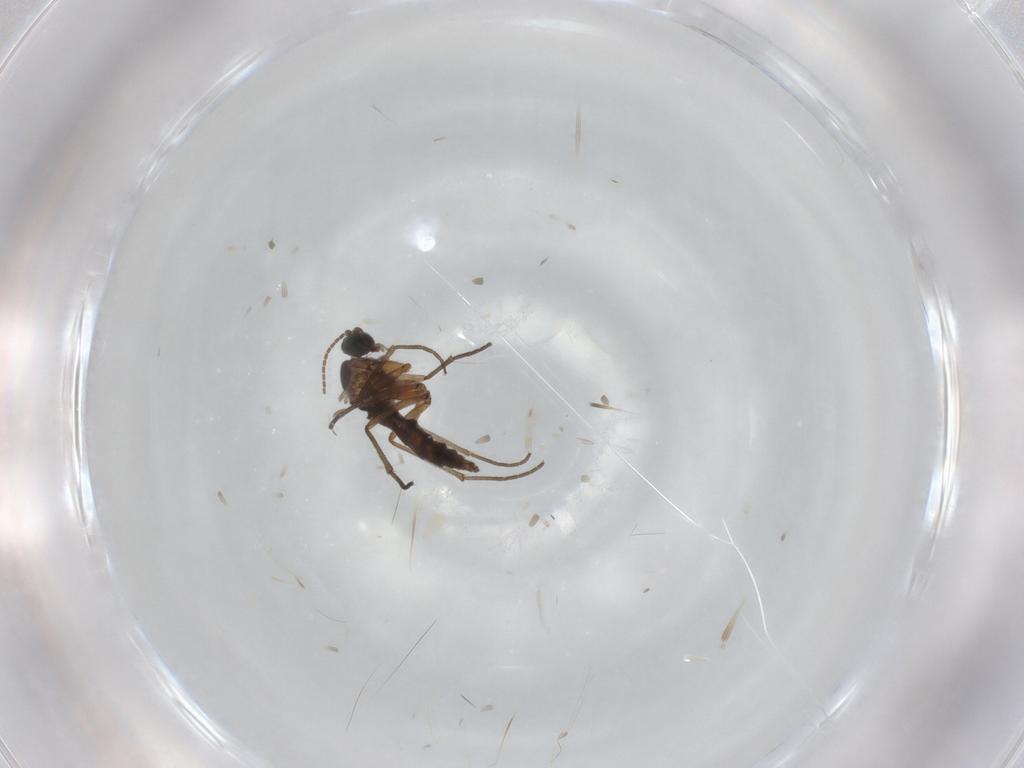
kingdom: Animalia
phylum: Arthropoda
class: Insecta
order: Diptera
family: Sciaridae
